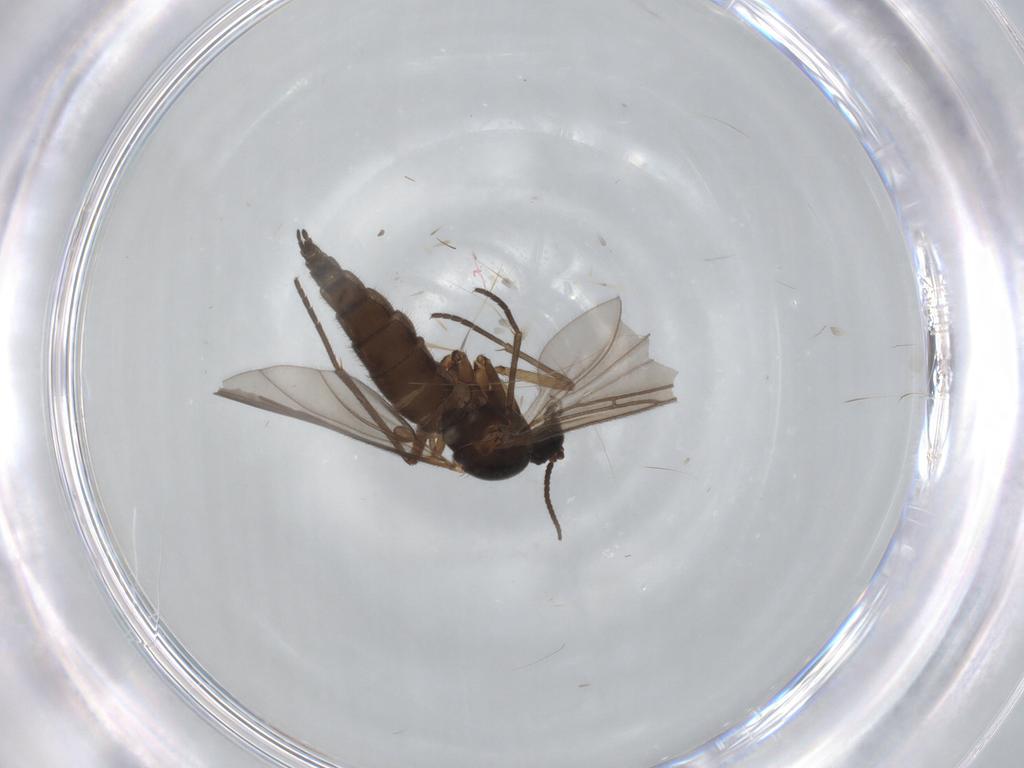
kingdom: Animalia
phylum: Arthropoda
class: Insecta
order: Diptera
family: Sciaridae
